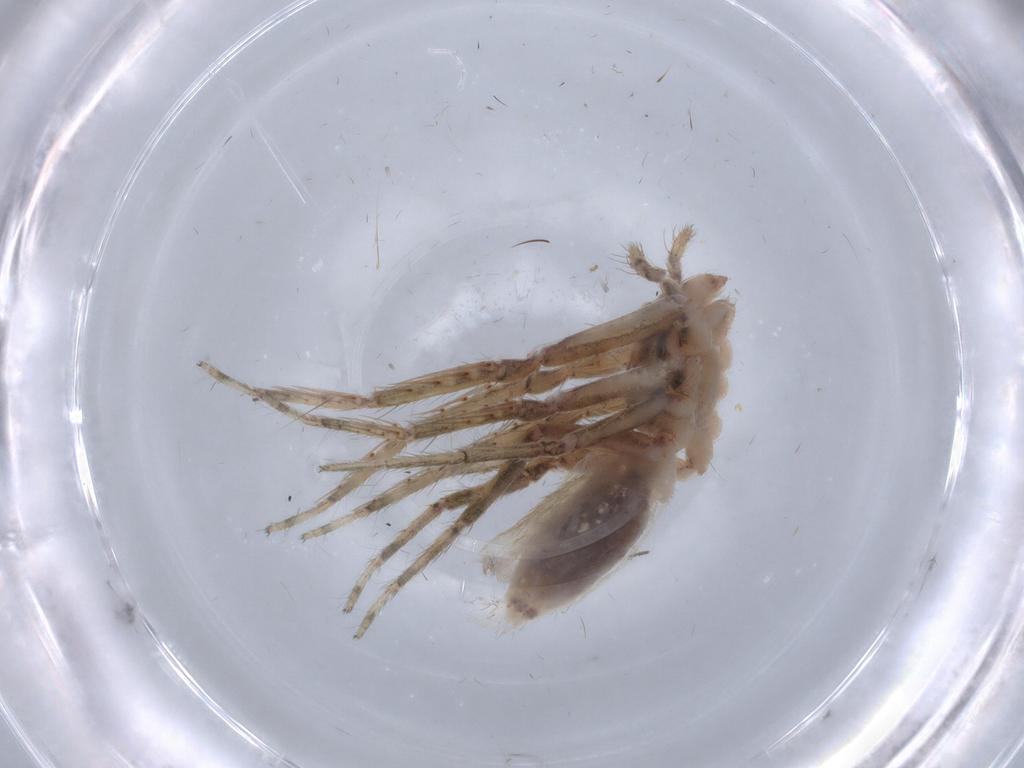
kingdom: Animalia
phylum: Arthropoda
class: Arachnida
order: Araneae
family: Senoculidae
